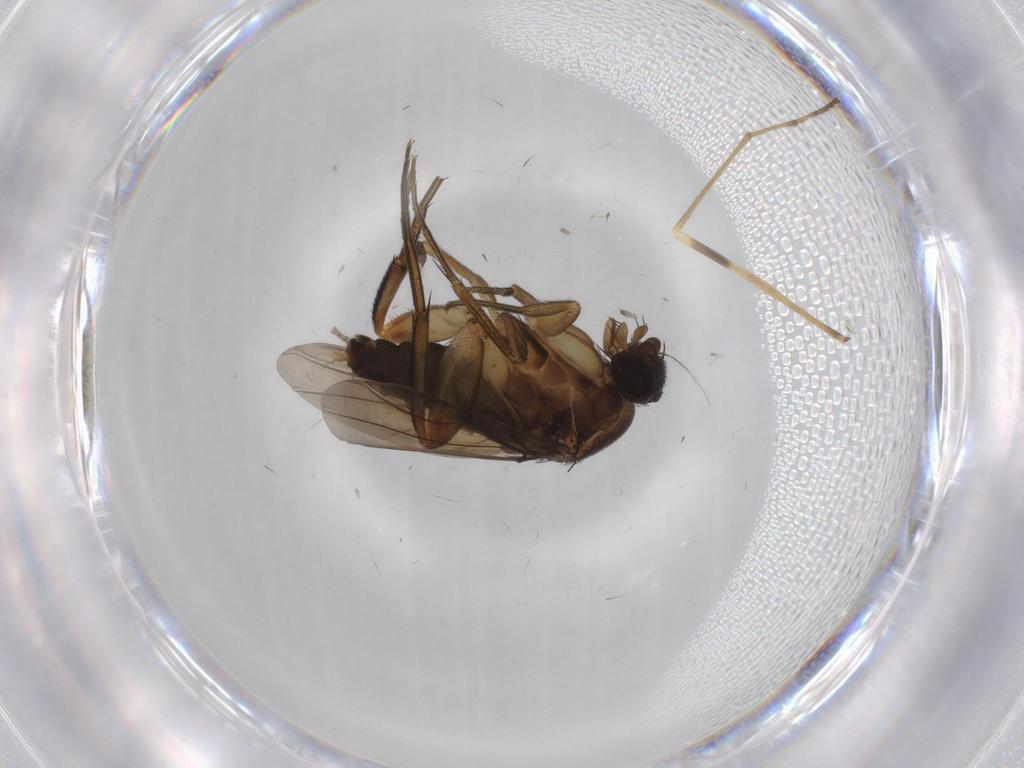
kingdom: Animalia
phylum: Arthropoda
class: Insecta
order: Diptera
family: Phoridae
